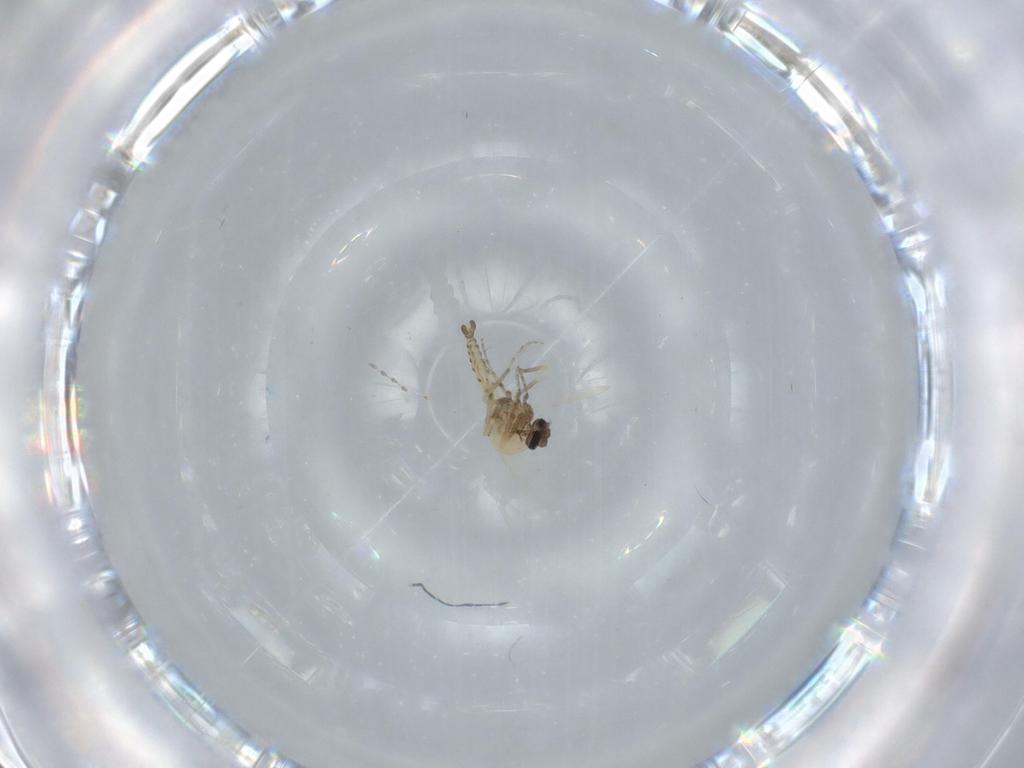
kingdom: Animalia
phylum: Arthropoda
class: Insecta
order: Diptera
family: Cecidomyiidae
